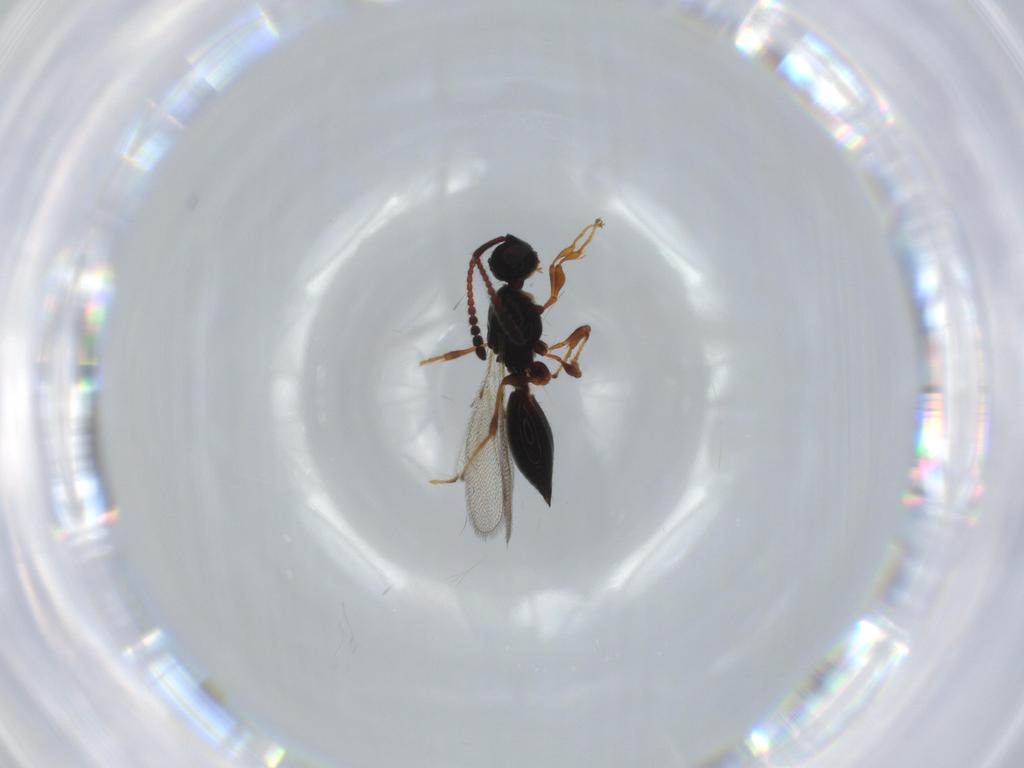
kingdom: Animalia
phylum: Arthropoda
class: Insecta
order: Hymenoptera
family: Diapriidae
